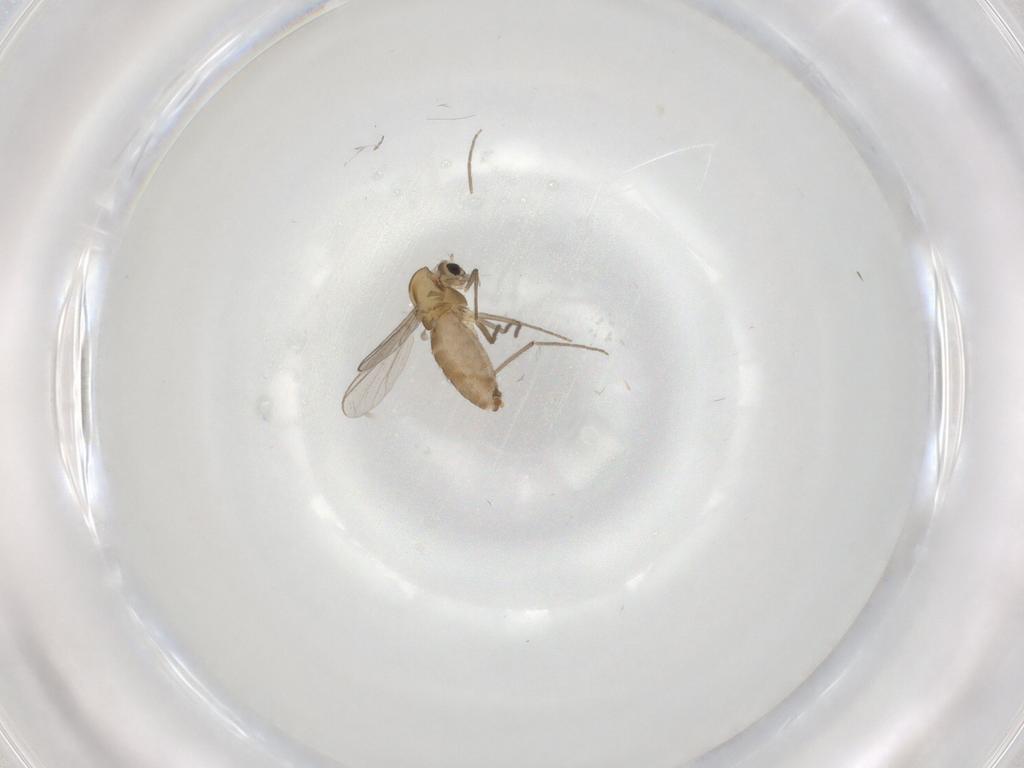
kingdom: Animalia
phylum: Arthropoda
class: Insecta
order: Diptera
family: Chironomidae
